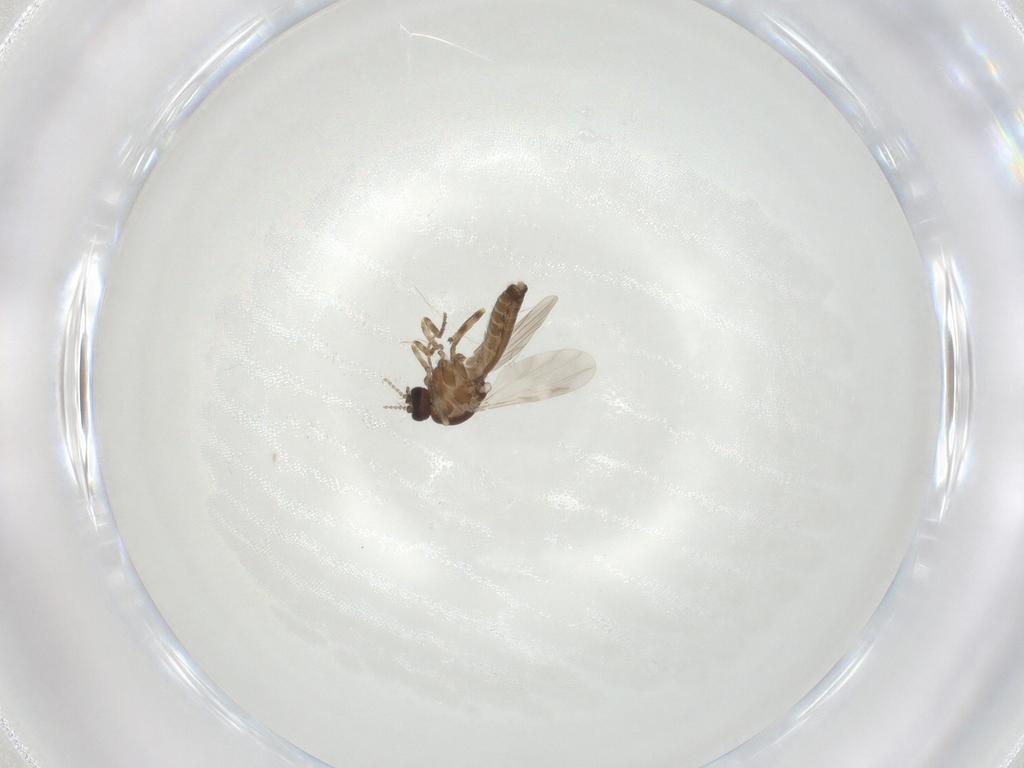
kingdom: Animalia
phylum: Arthropoda
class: Insecta
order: Diptera
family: Ceratopogonidae
